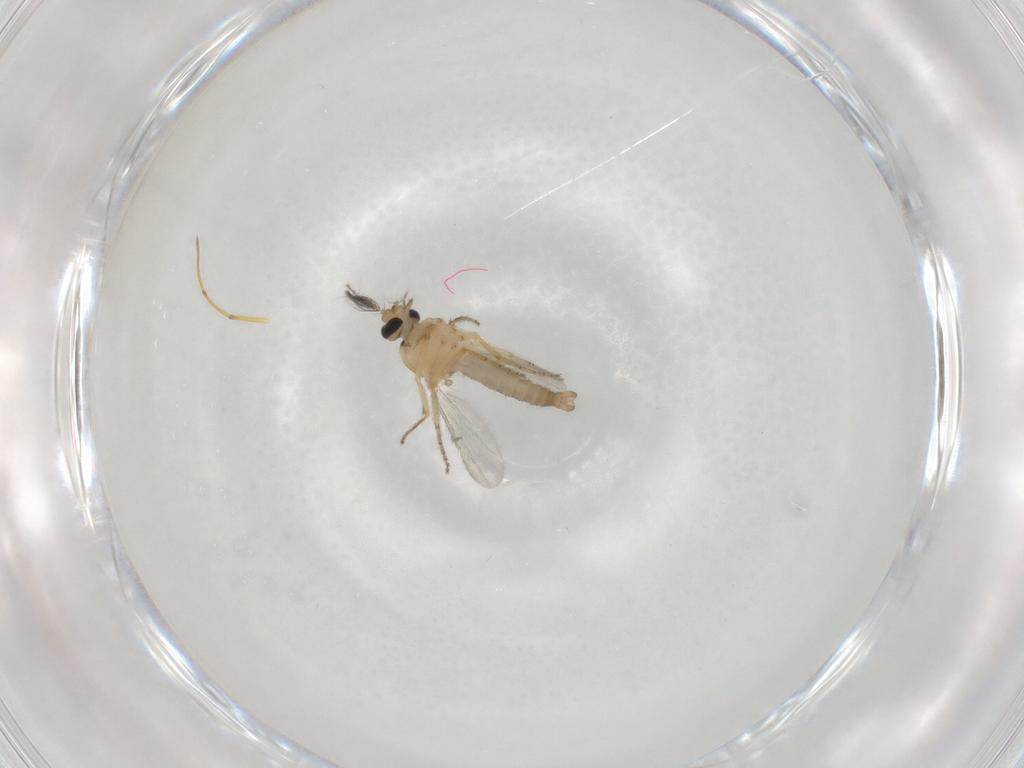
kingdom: Animalia
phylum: Arthropoda
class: Insecta
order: Diptera
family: Ceratopogonidae
